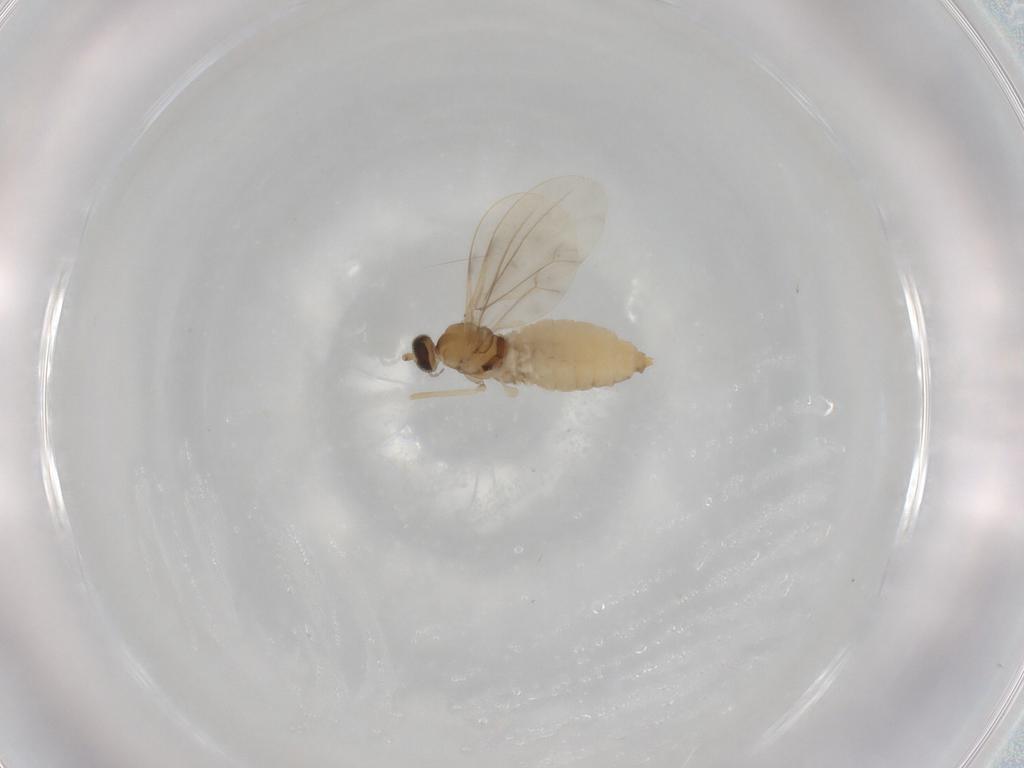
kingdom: Animalia
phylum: Arthropoda
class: Insecta
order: Diptera
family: Cecidomyiidae
